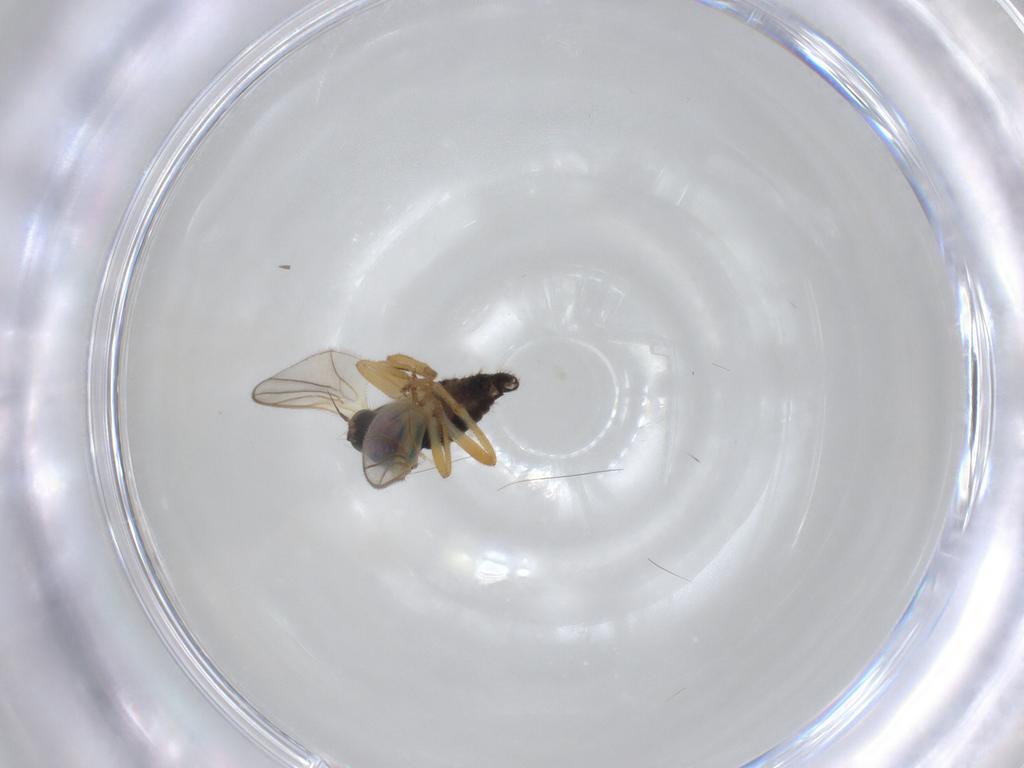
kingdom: Animalia
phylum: Arthropoda
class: Insecta
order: Diptera
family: Hybotidae
